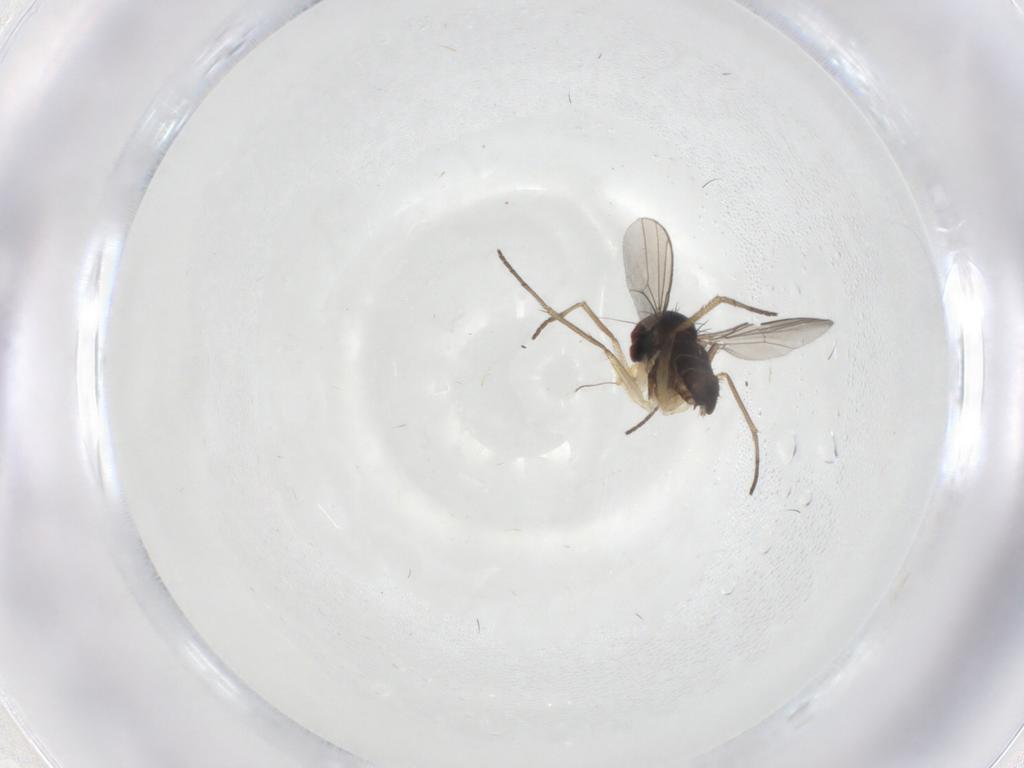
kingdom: Animalia
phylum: Arthropoda
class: Insecta
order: Diptera
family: Dolichopodidae
